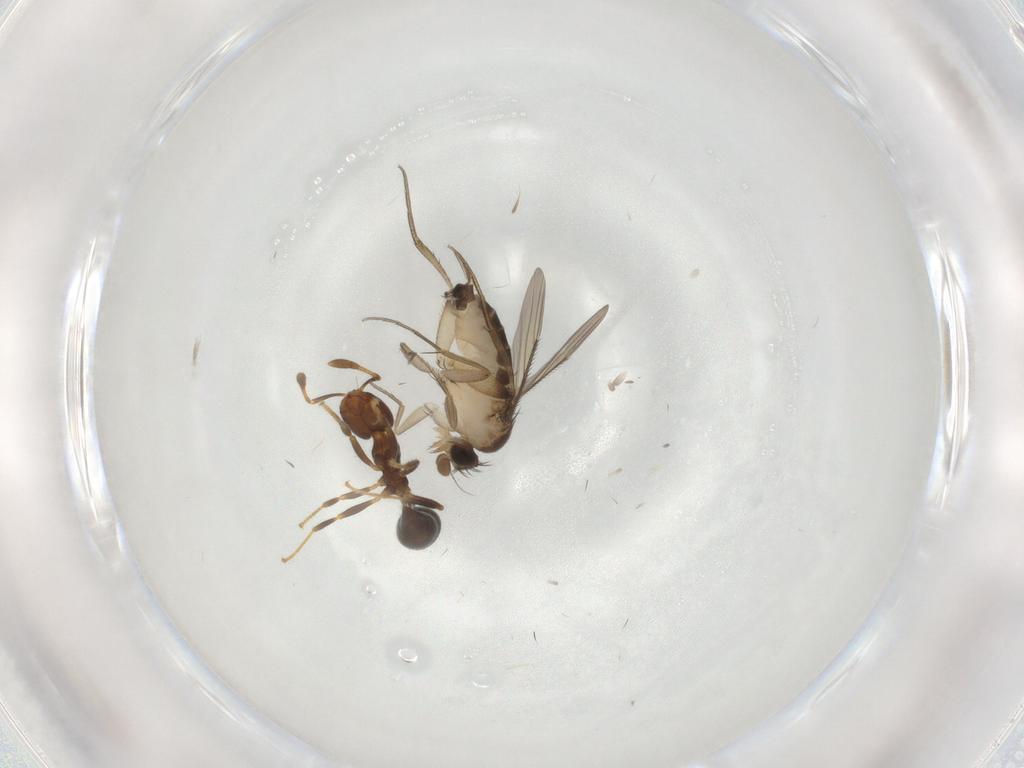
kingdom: Animalia
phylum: Arthropoda
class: Insecta
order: Diptera
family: Phoridae
